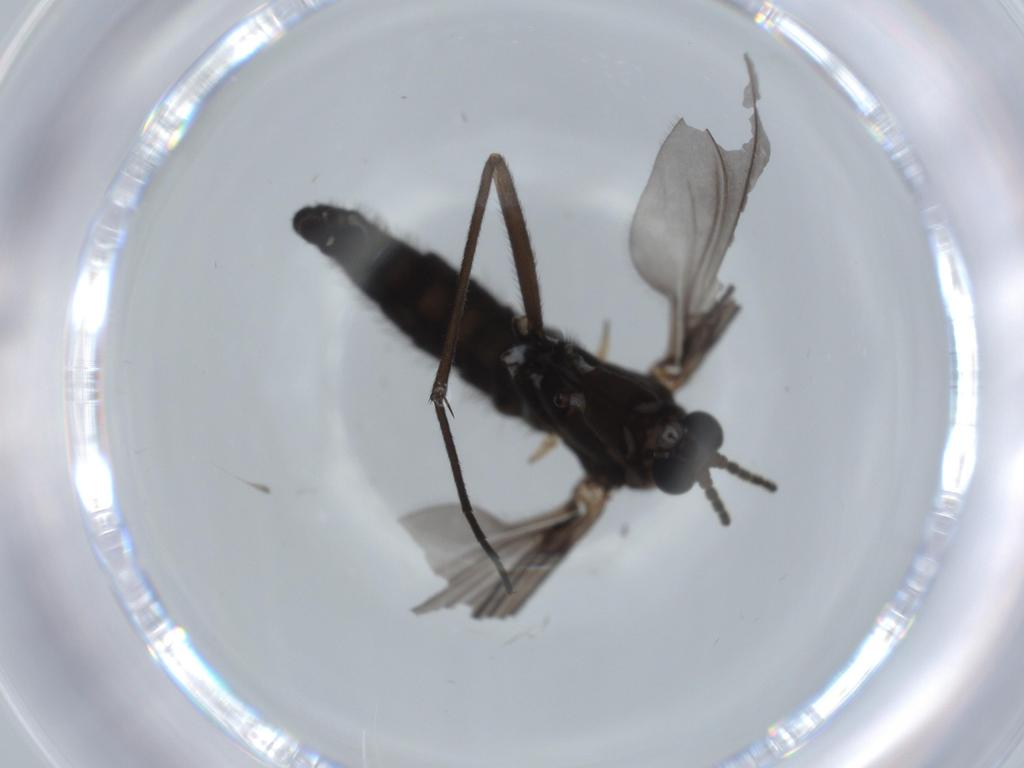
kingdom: Animalia
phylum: Arthropoda
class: Insecta
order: Diptera
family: Sciaridae
